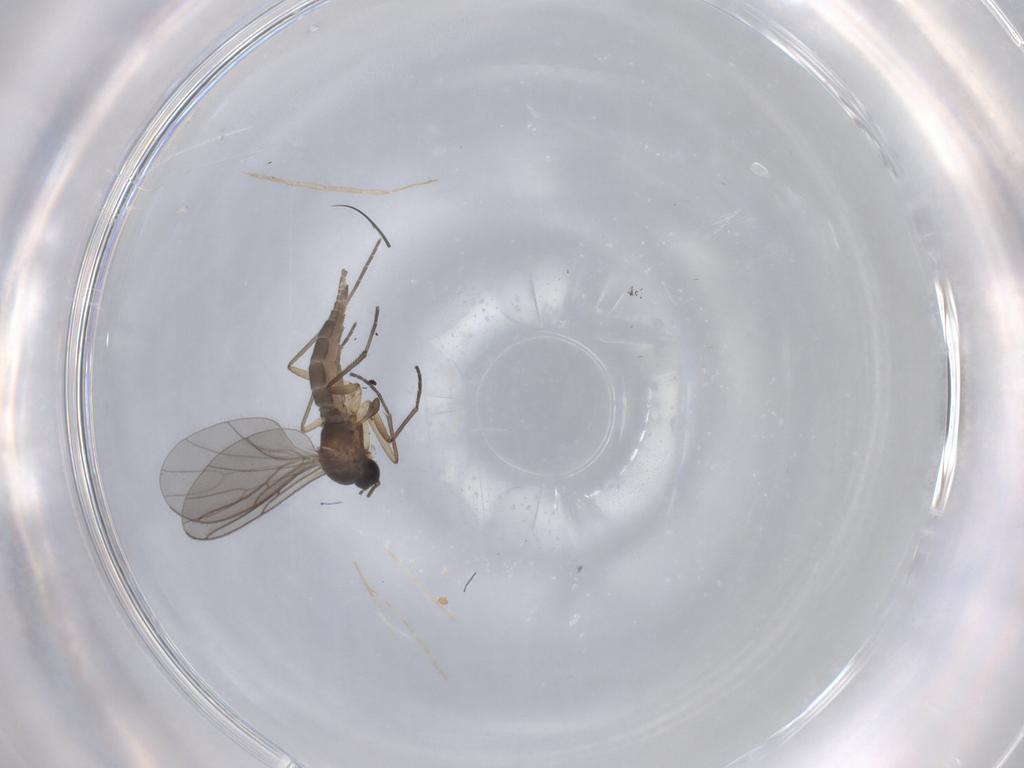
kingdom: Animalia
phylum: Arthropoda
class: Insecta
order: Diptera
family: Sciaridae
